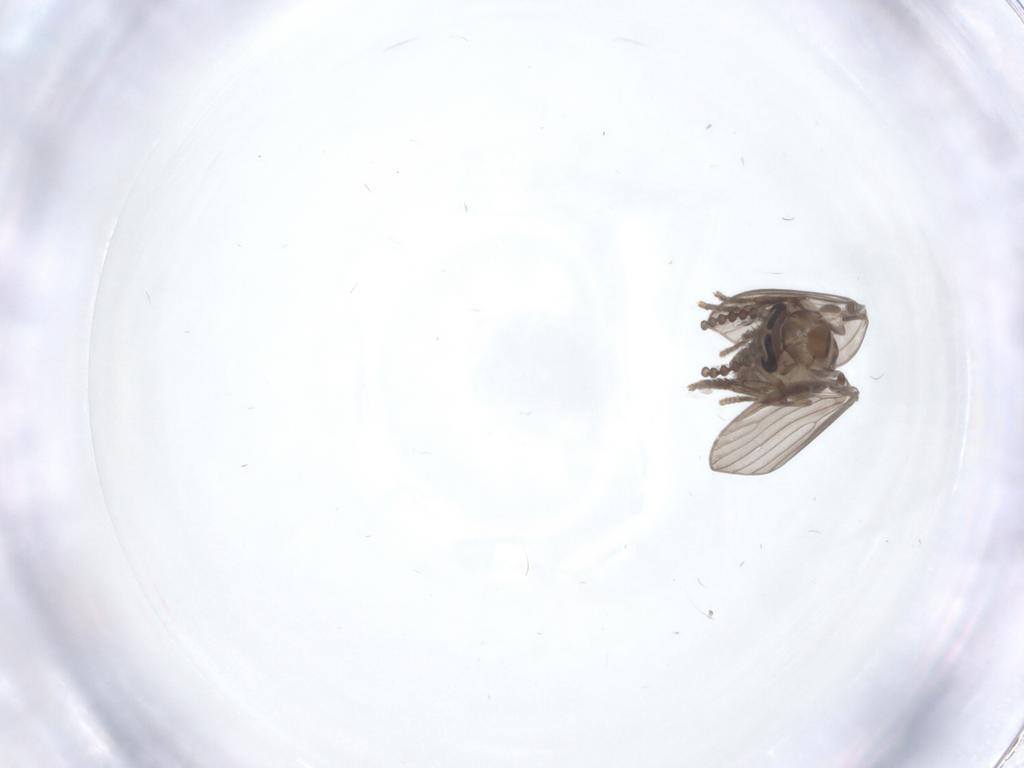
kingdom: Animalia
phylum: Arthropoda
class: Insecta
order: Diptera
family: Psychodidae
